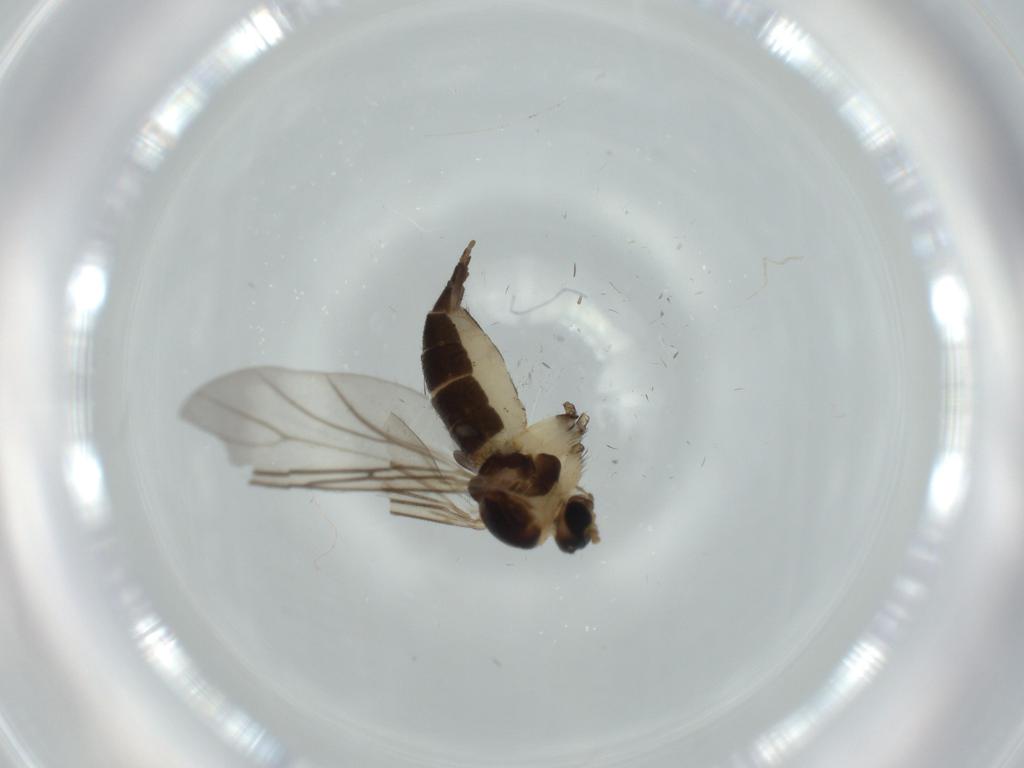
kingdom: Animalia
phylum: Arthropoda
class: Insecta
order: Diptera
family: Sciaridae
